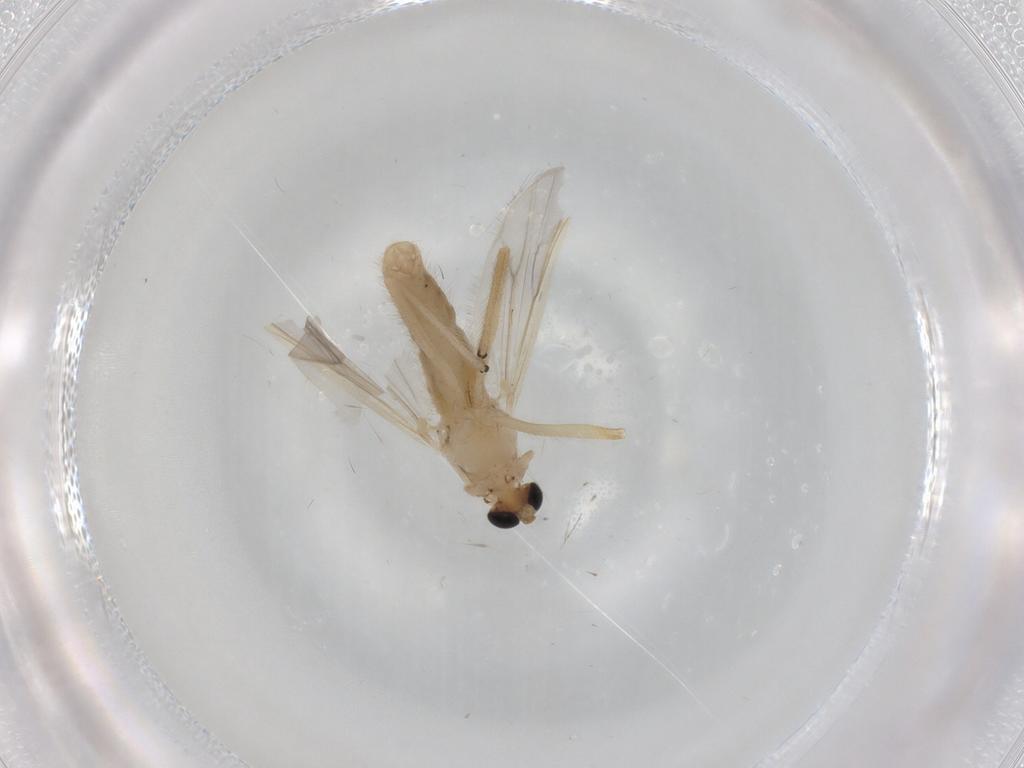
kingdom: Animalia
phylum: Arthropoda
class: Insecta
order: Diptera
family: Chironomidae
